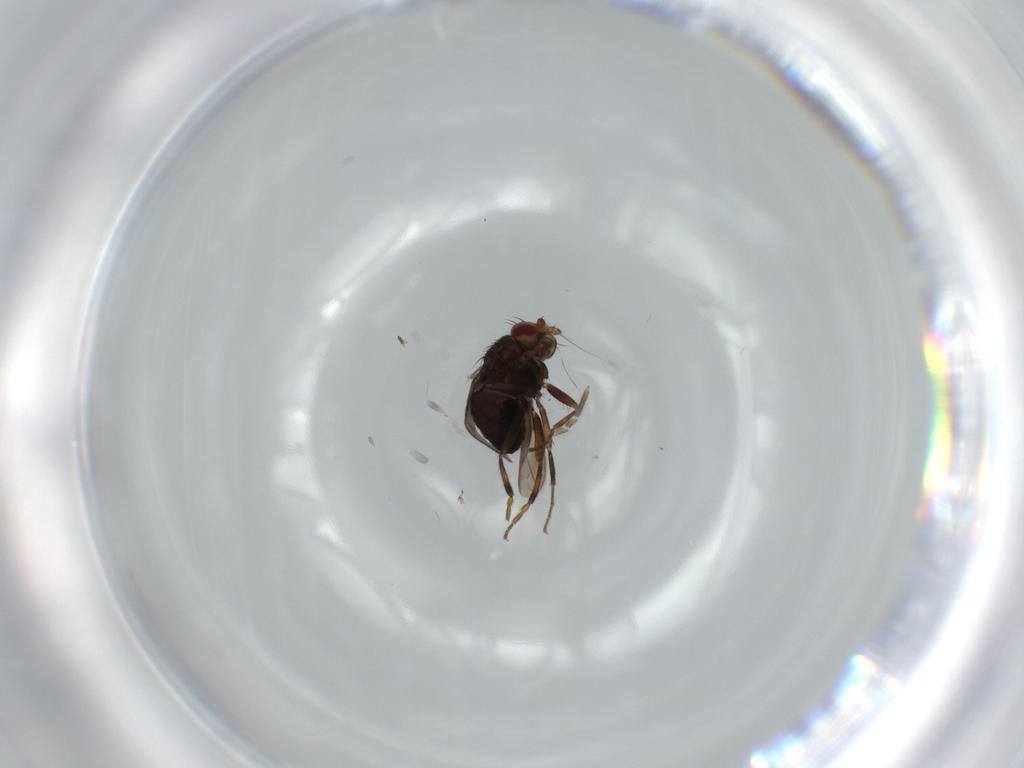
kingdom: Animalia
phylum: Arthropoda
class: Insecta
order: Diptera
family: Sphaeroceridae
